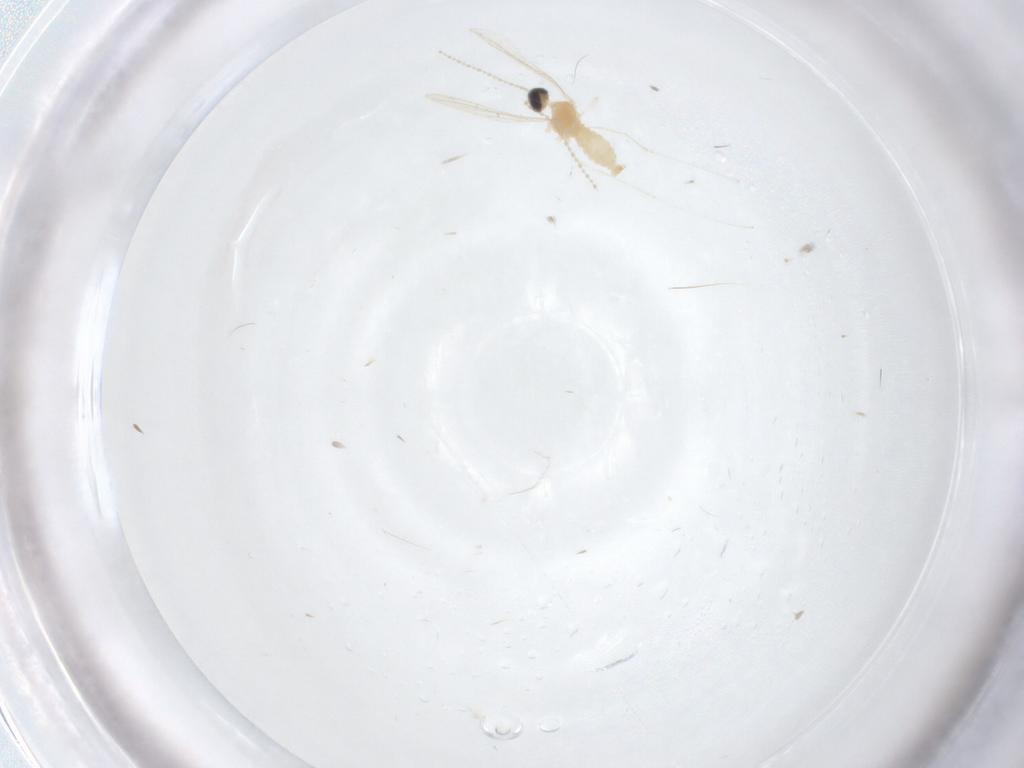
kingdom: Animalia
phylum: Arthropoda
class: Insecta
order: Diptera
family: Cecidomyiidae
